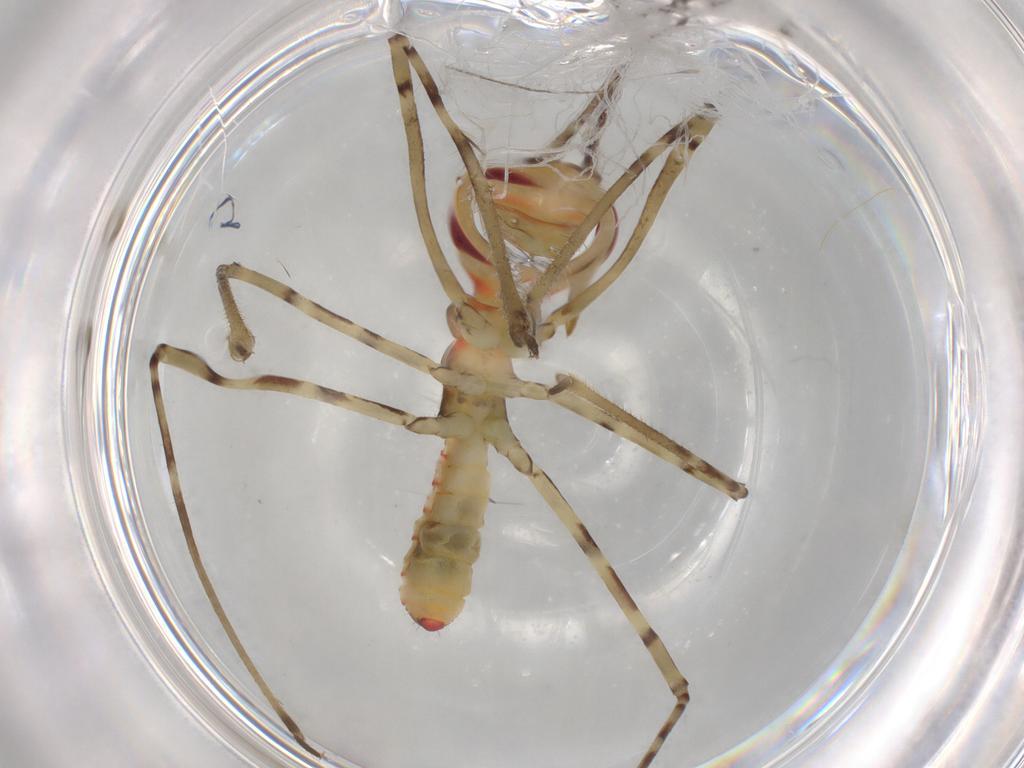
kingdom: Animalia
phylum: Arthropoda
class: Insecta
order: Hemiptera
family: Reduviidae
